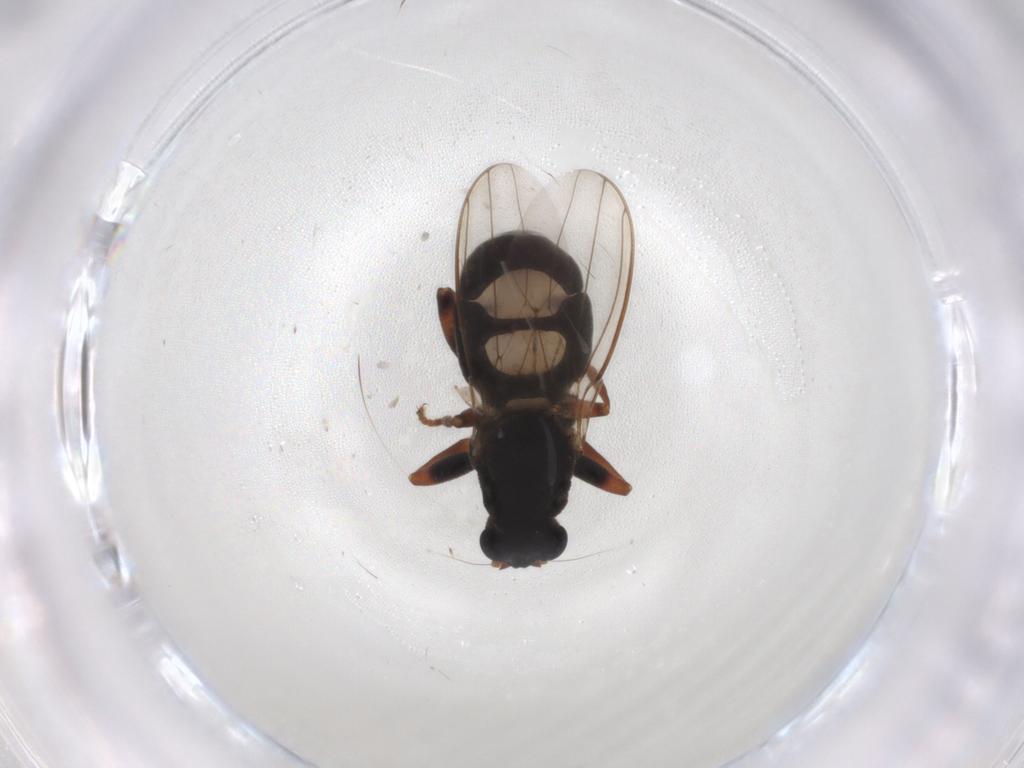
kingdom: Animalia
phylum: Arthropoda
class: Insecta
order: Diptera
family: Sphaeroceridae
